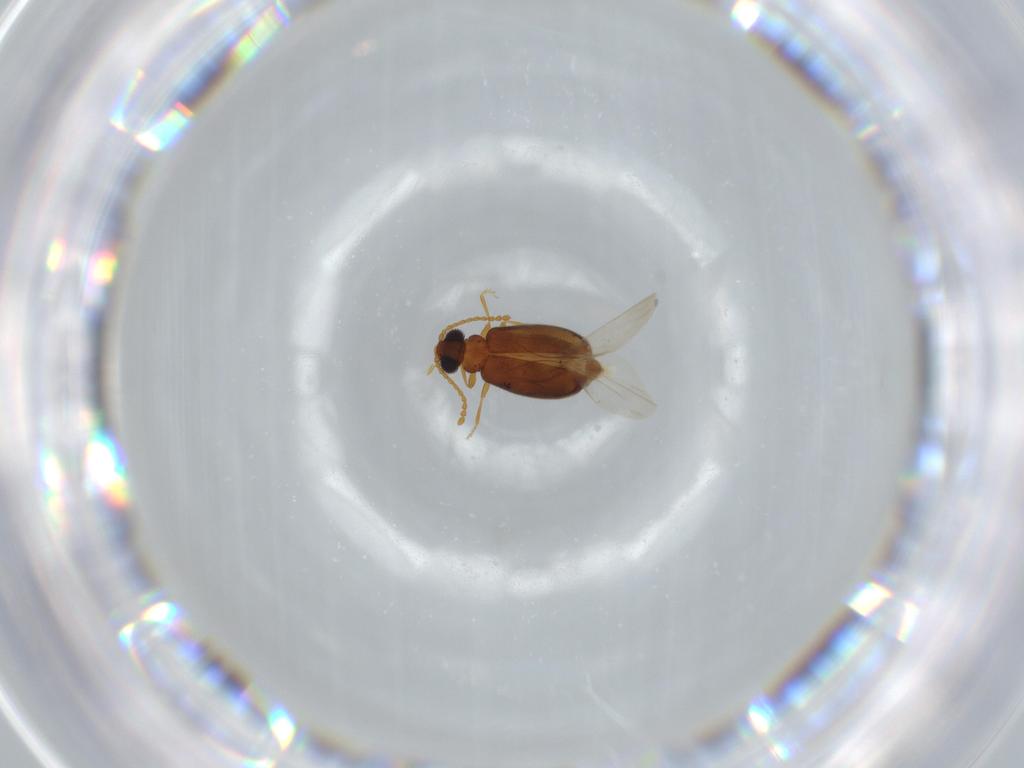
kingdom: Animalia
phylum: Arthropoda
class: Insecta
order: Coleoptera
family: Aderidae
